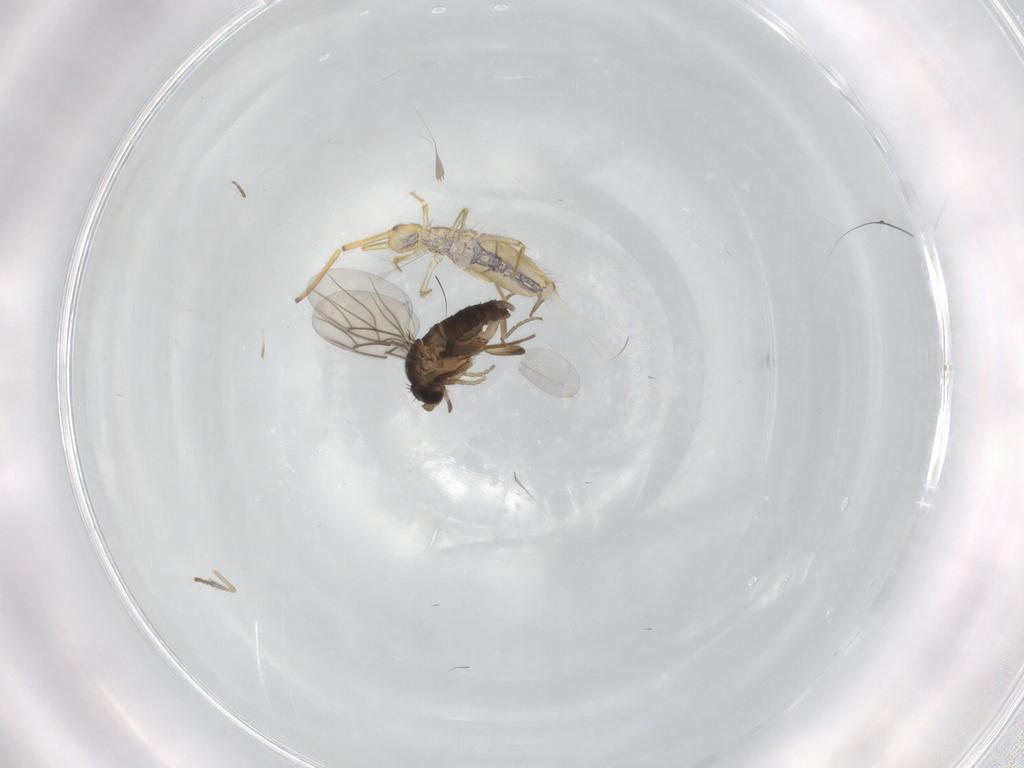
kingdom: Animalia
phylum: Arthropoda
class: Insecta
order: Diptera
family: Phoridae
